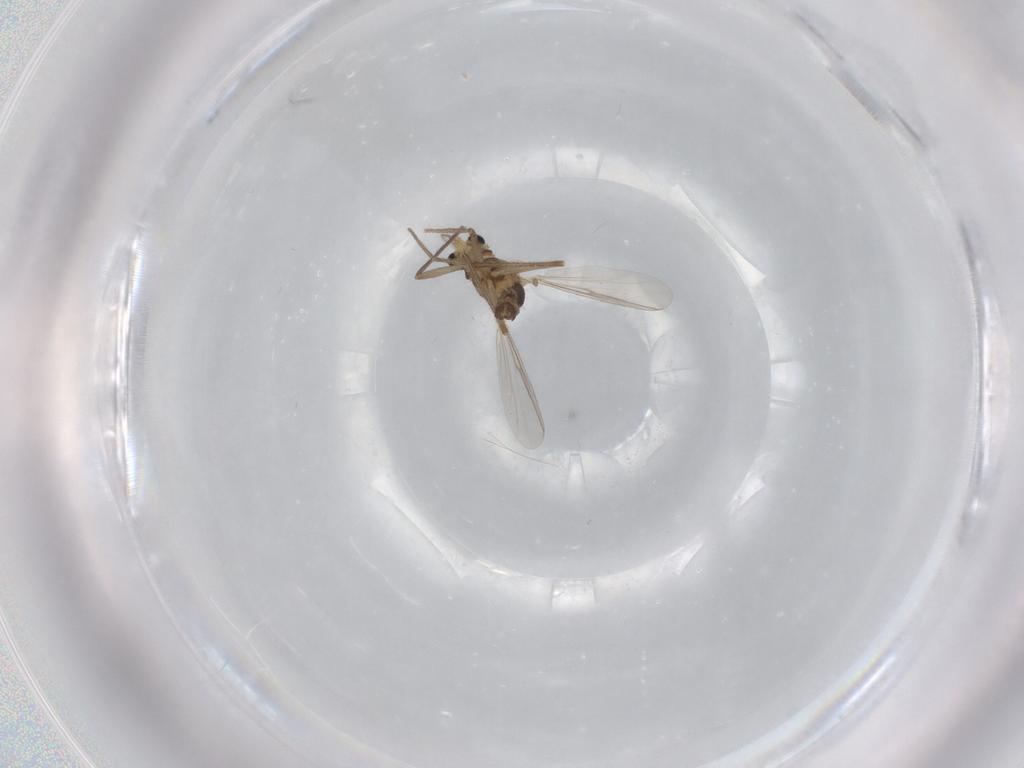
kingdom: Animalia
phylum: Arthropoda
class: Insecta
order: Diptera
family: Chironomidae
